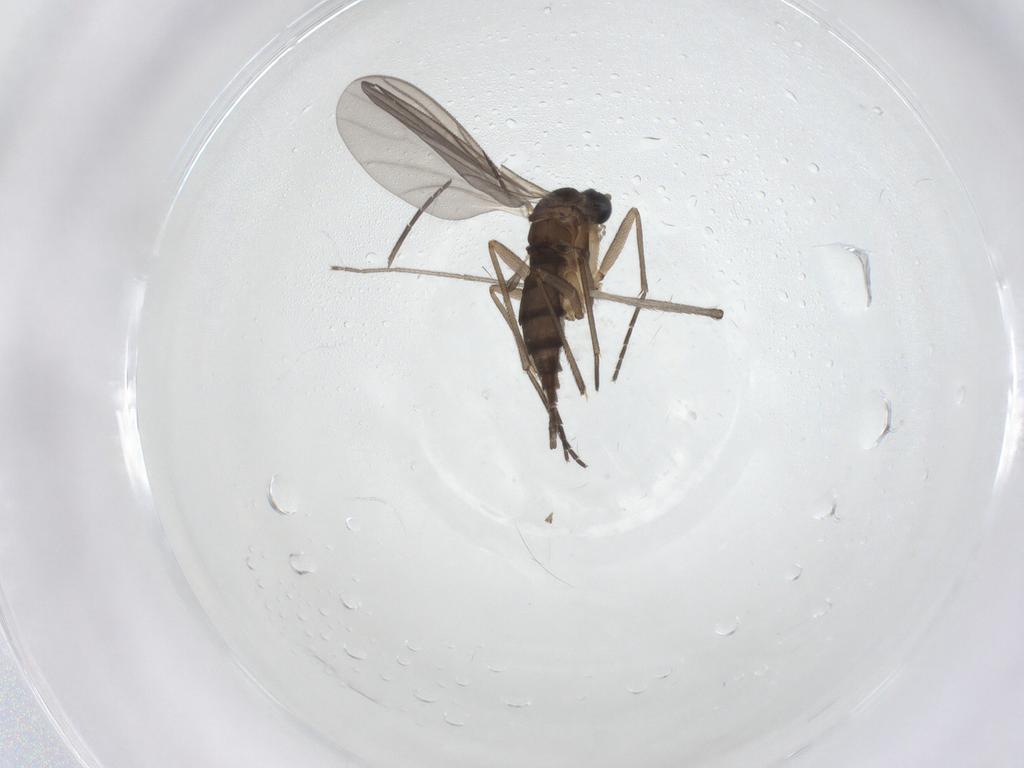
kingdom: Animalia
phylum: Arthropoda
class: Insecta
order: Diptera
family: Sciaridae
